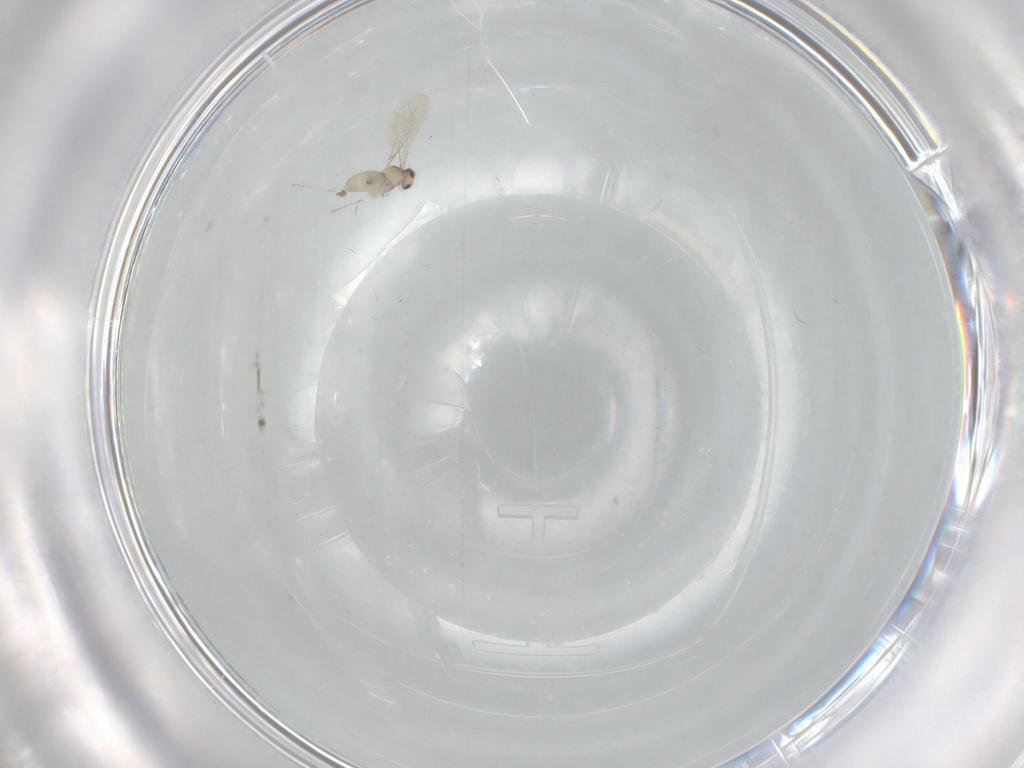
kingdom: Animalia
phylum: Arthropoda
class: Insecta
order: Diptera
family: Cecidomyiidae
